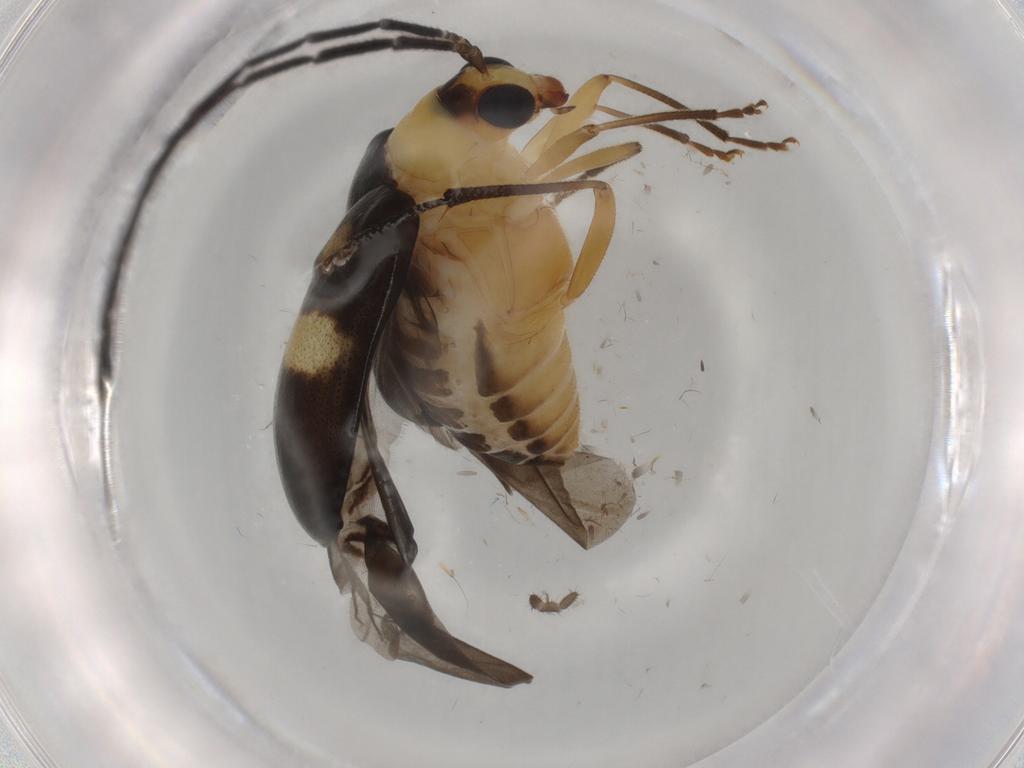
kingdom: Animalia
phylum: Arthropoda
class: Insecta
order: Coleoptera
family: Chrysomelidae
